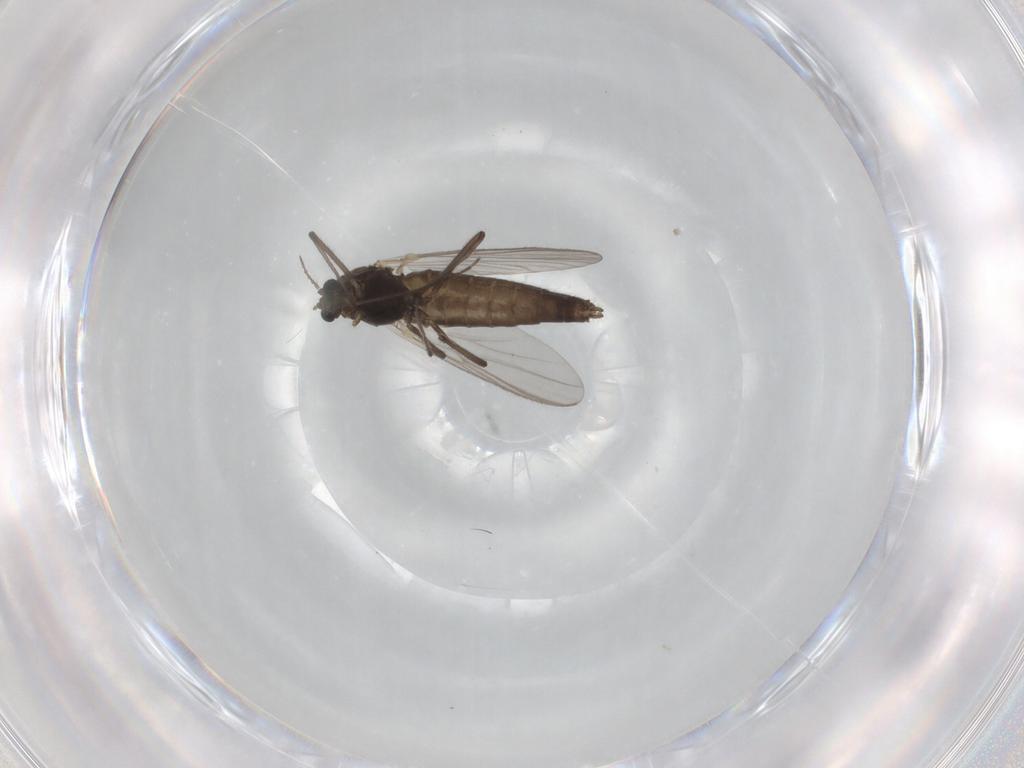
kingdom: Animalia
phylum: Arthropoda
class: Insecta
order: Diptera
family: Chironomidae
